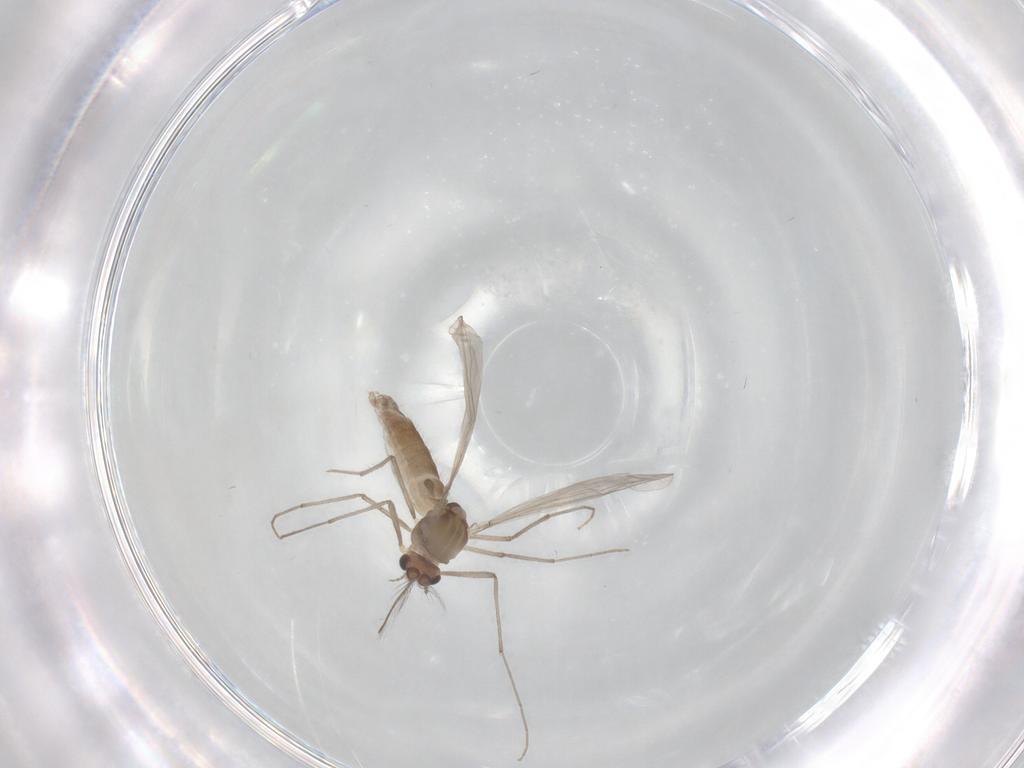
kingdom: Animalia
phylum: Arthropoda
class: Insecta
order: Diptera
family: Chironomidae
